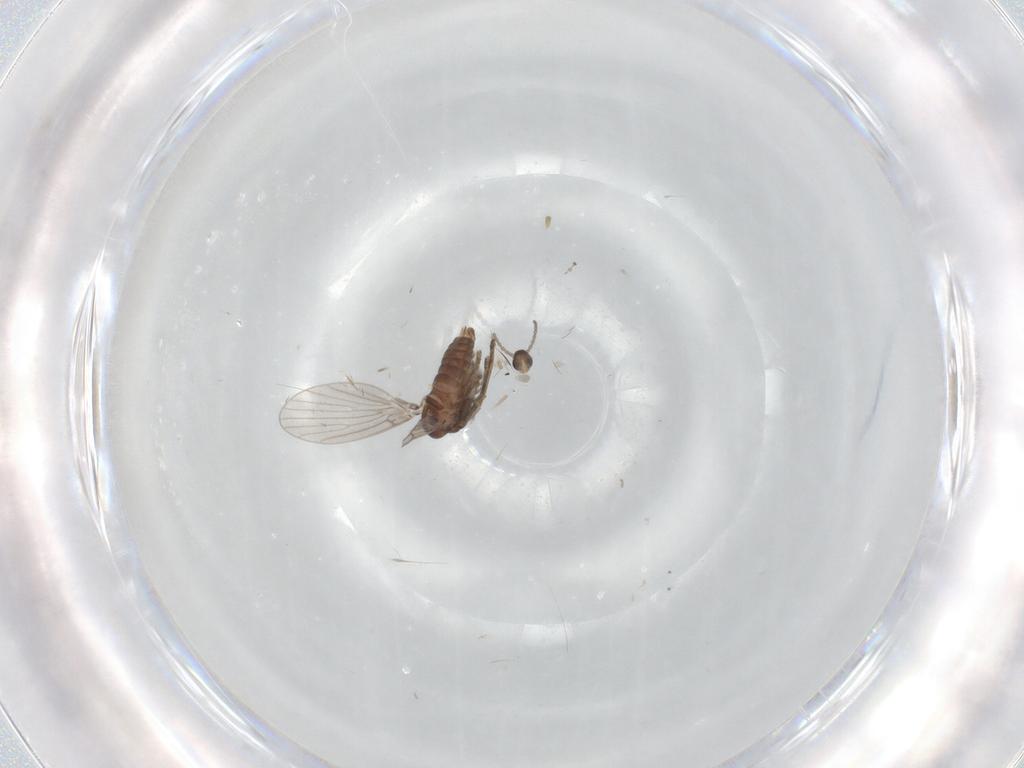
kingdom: Animalia
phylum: Arthropoda
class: Insecta
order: Diptera
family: Cecidomyiidae
